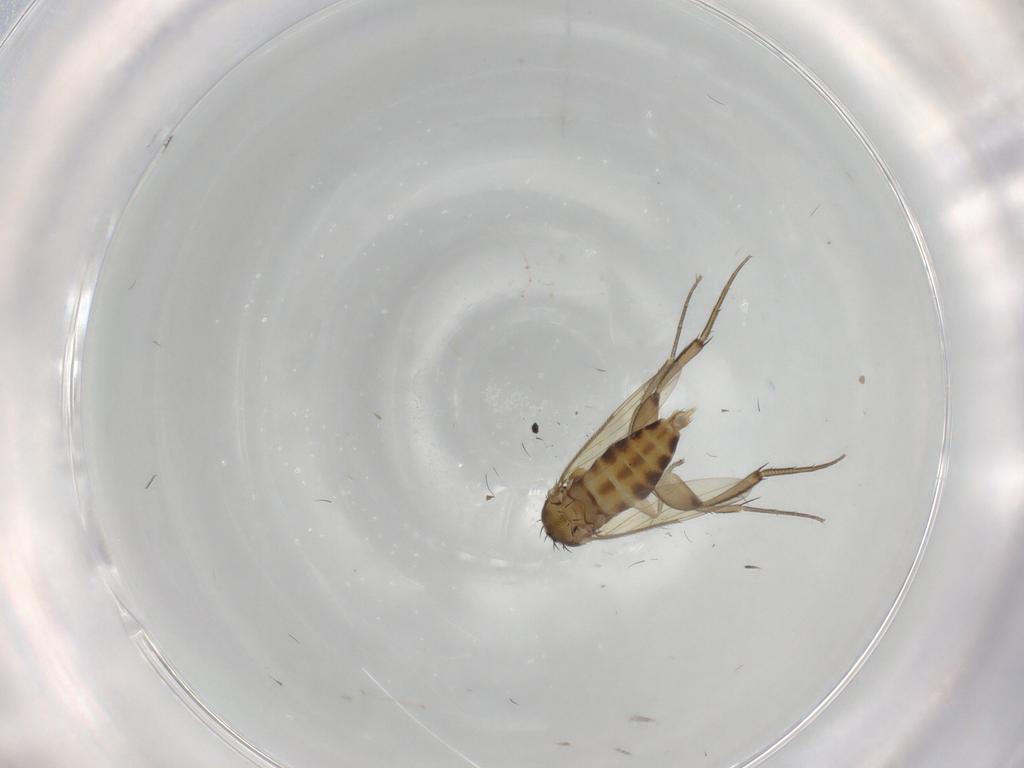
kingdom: Animalia
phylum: Arthropoda
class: Insecta
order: Diptera
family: Phoridae
